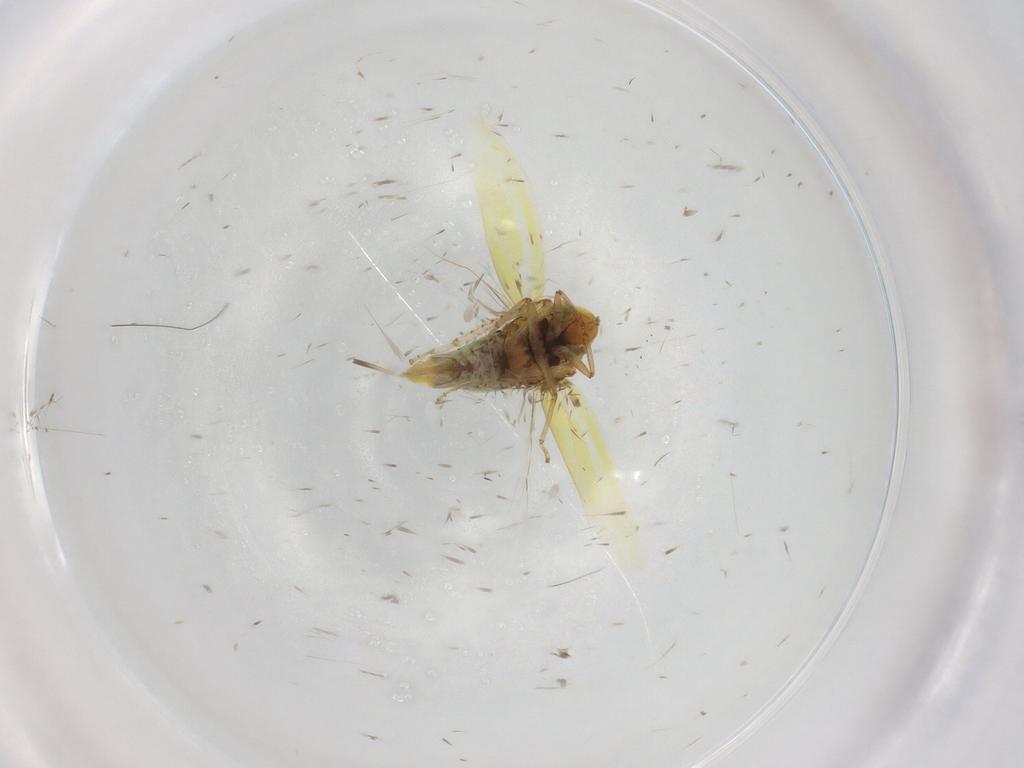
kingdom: Animalia
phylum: Arthropoda
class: Insecta
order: Hemiptera
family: Cicadellidae
